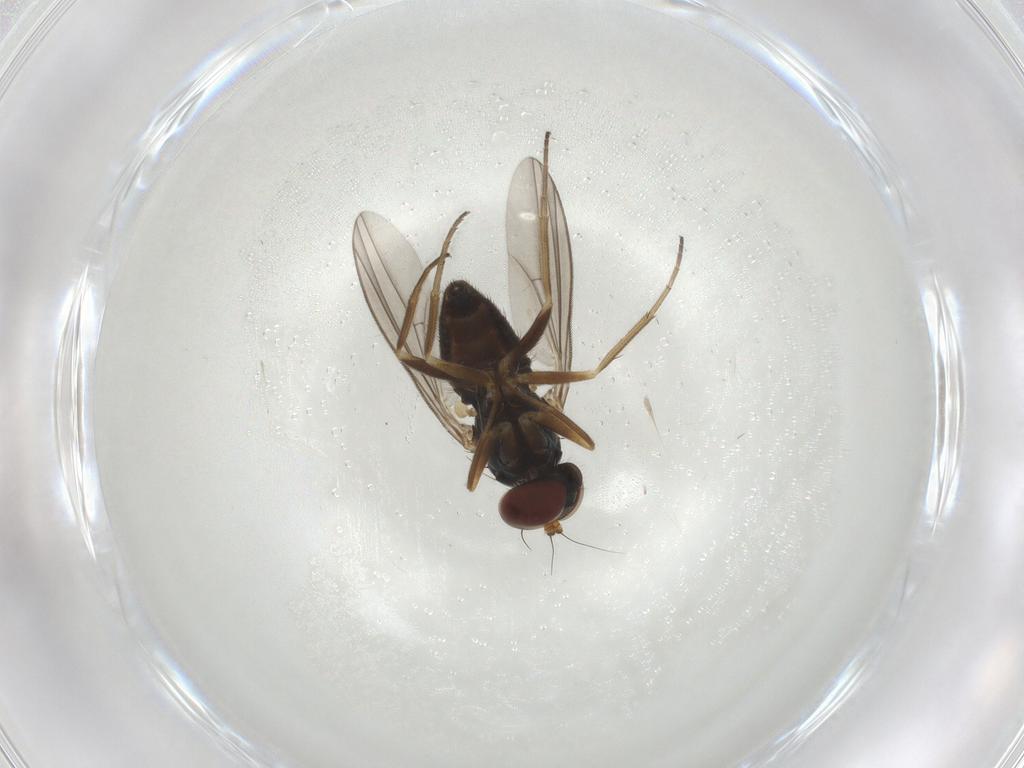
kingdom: Animalia
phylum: Arthropoda
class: Insecta
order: Diptera
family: Dolichopodidae
